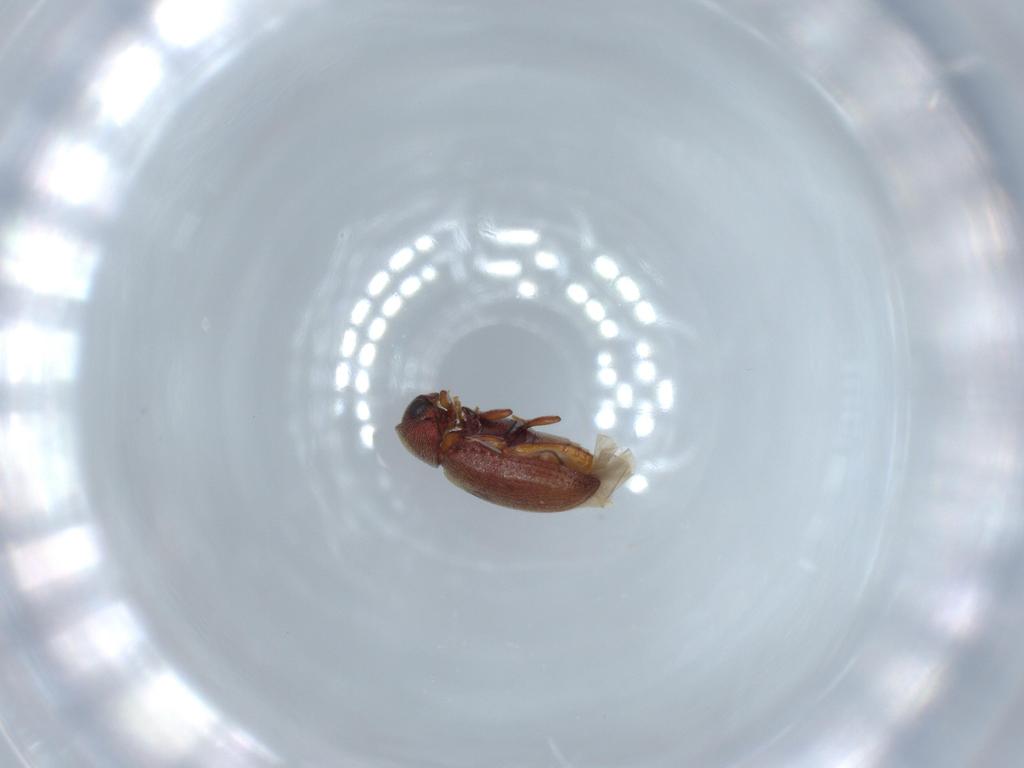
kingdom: Animalia
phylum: Arthropoda
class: Insecta
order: Coleoptera
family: Ptinidae
